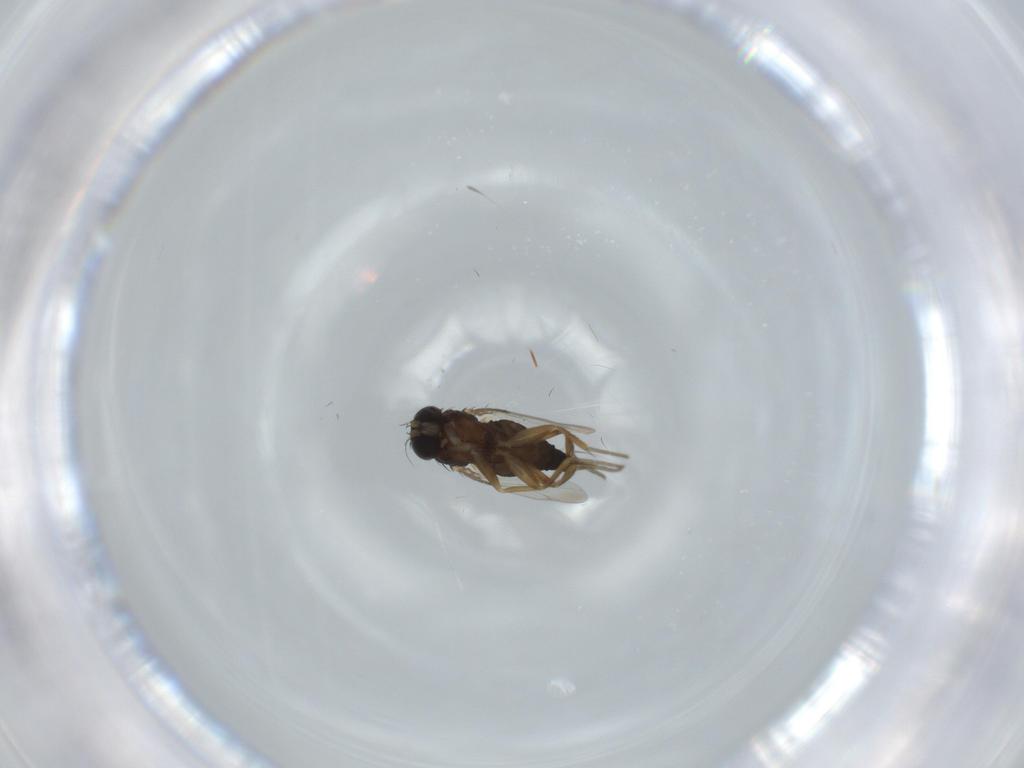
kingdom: Animalia
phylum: Arthropoda
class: Insecta
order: Diptera
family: Phoridae
